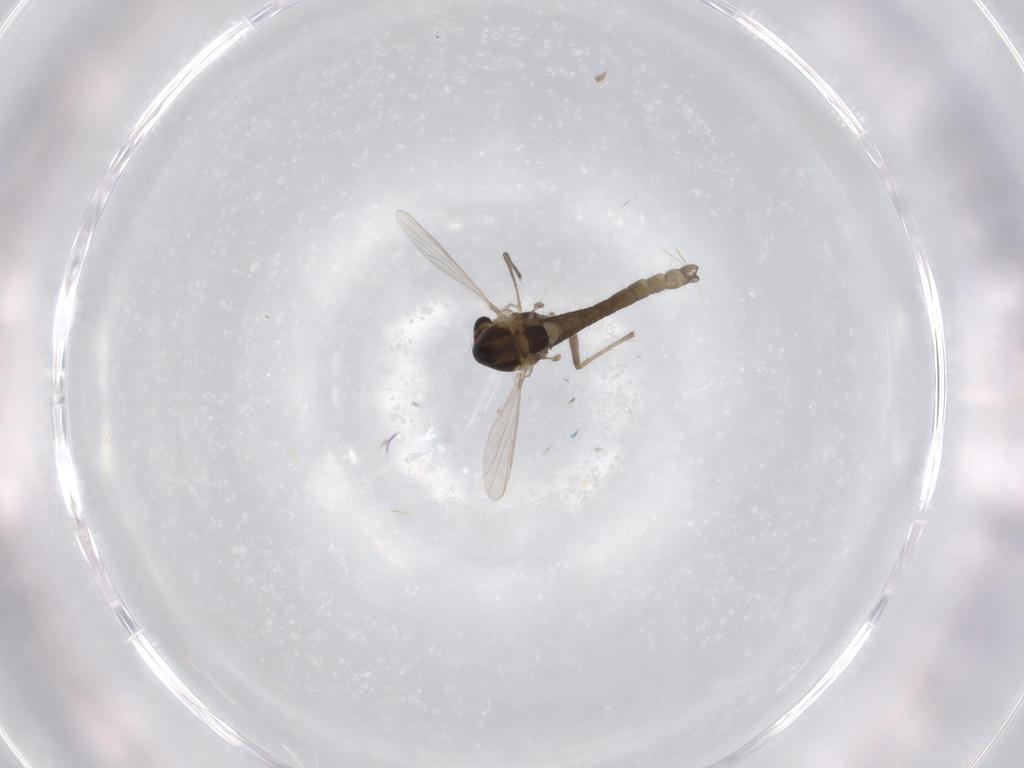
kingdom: Animalia
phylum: Arthropoda
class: Insecta
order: Diptera
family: Chironomidae
